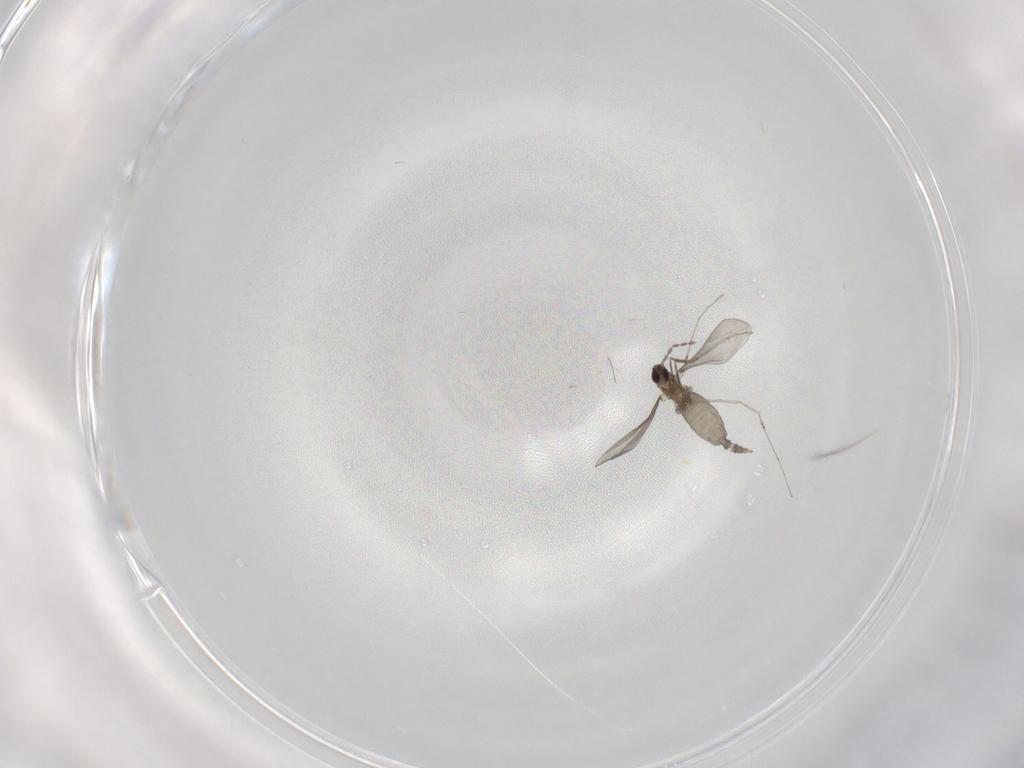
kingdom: Animalia
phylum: Arthropoda
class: Insecta
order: Diptera
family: Cecidomyiidae
